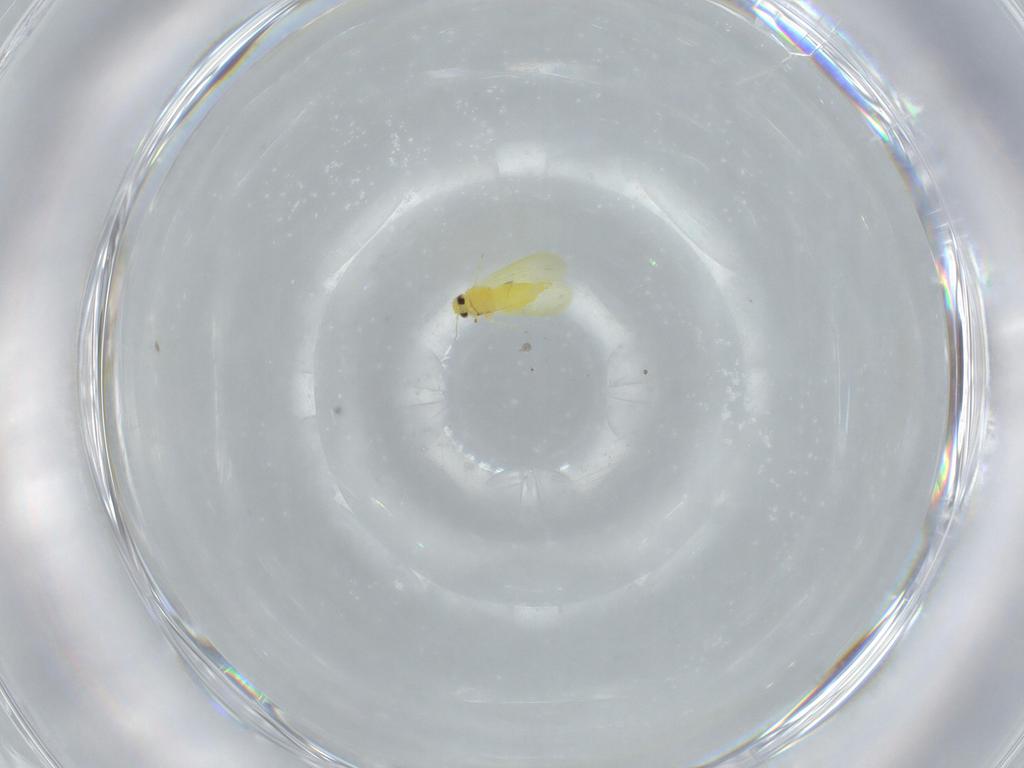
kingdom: Animalia
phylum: Arthropoda
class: Insecta
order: Hemiptera
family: Aleyrodidae
